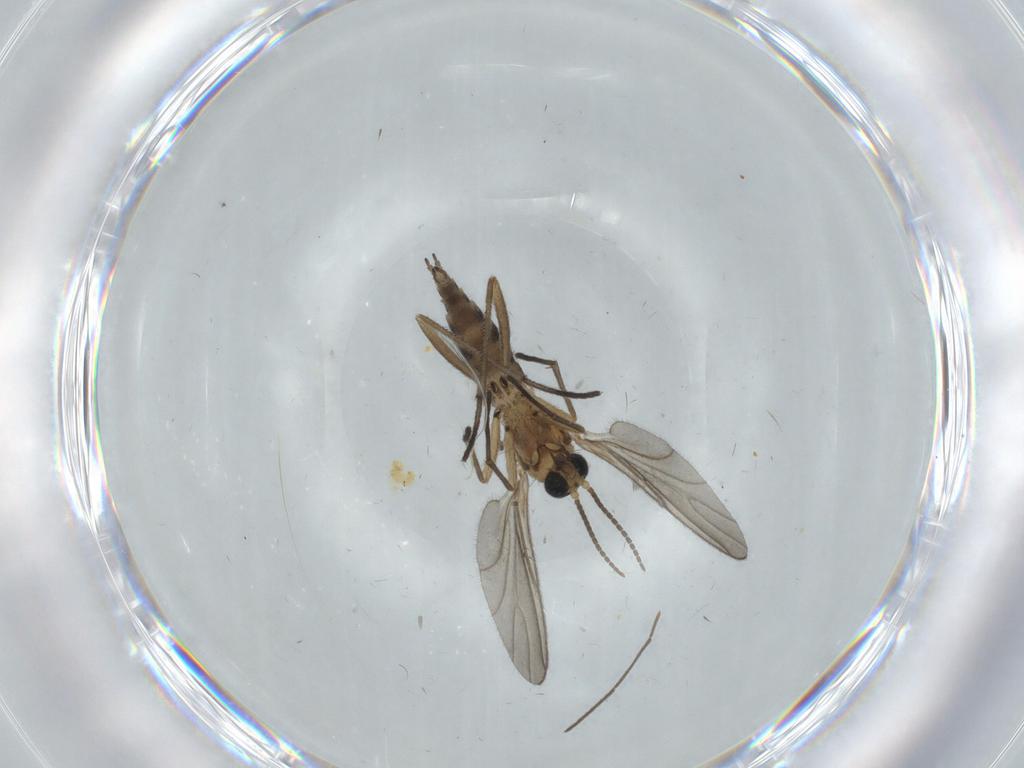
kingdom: Animalia
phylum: Arthropoda
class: Insecta
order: Diptera
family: Sciaridae
